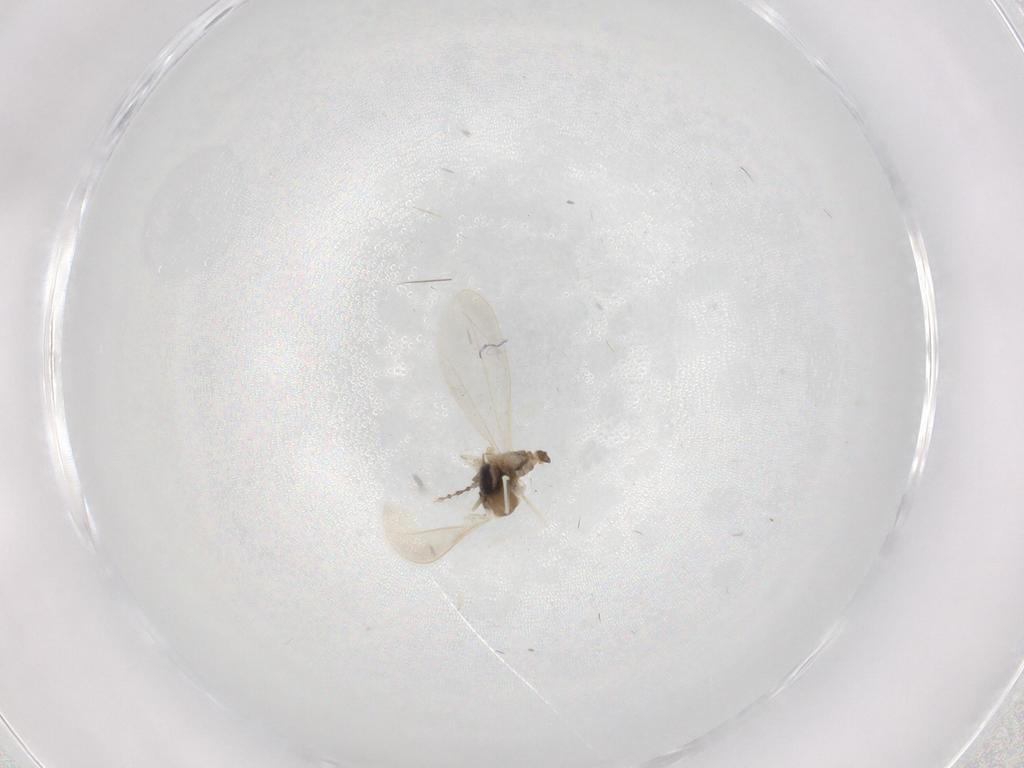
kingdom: Animalia
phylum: Arthropoda
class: Insecta
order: Diptera
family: Cecidomyiidae
